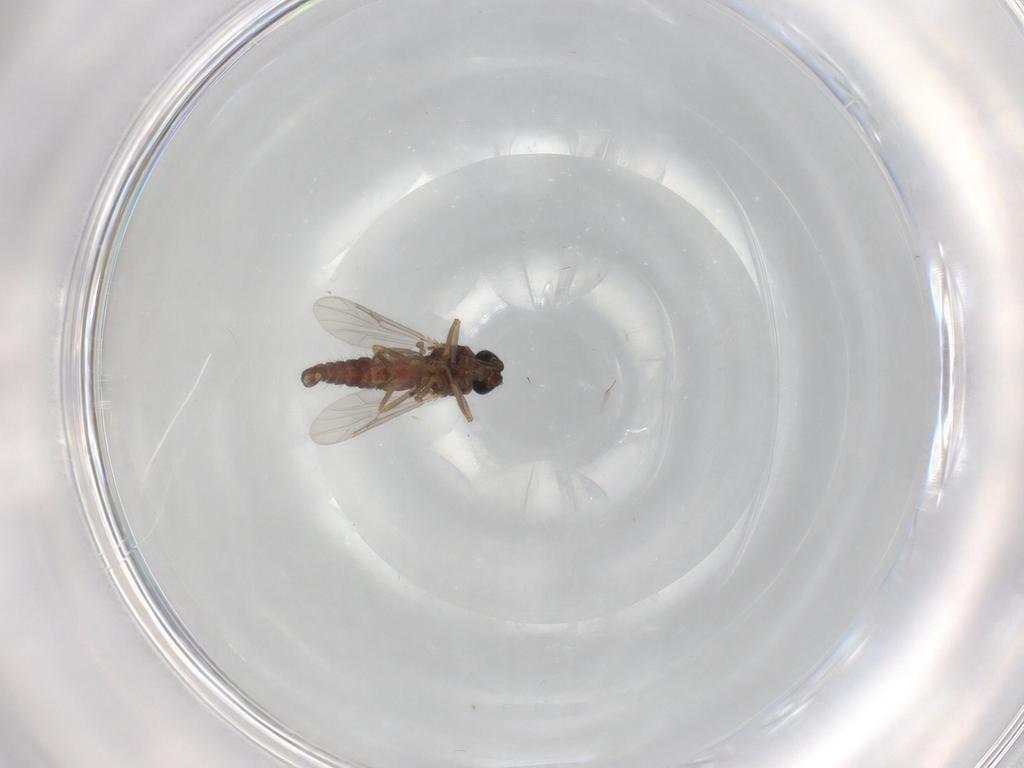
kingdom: Animalia
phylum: Arthropoda
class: Insecta
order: Diptera
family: Ceratopogonidae
